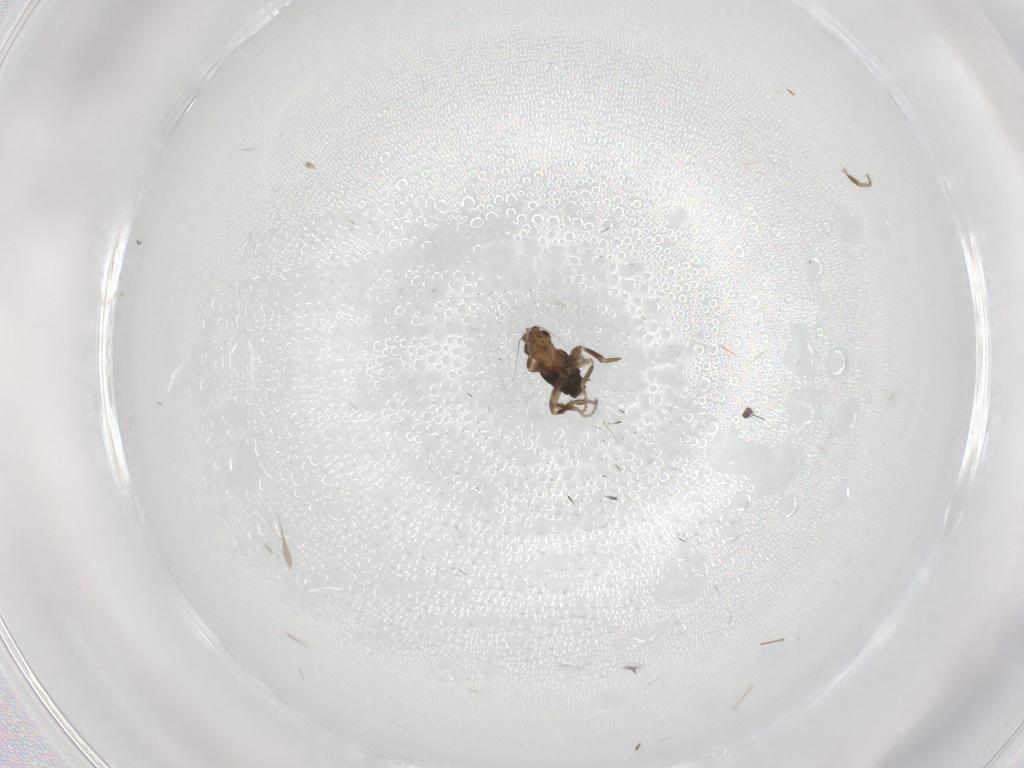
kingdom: Animalia
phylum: Arthropoda
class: Insecta
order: Diptera
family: Dolichopodidae
